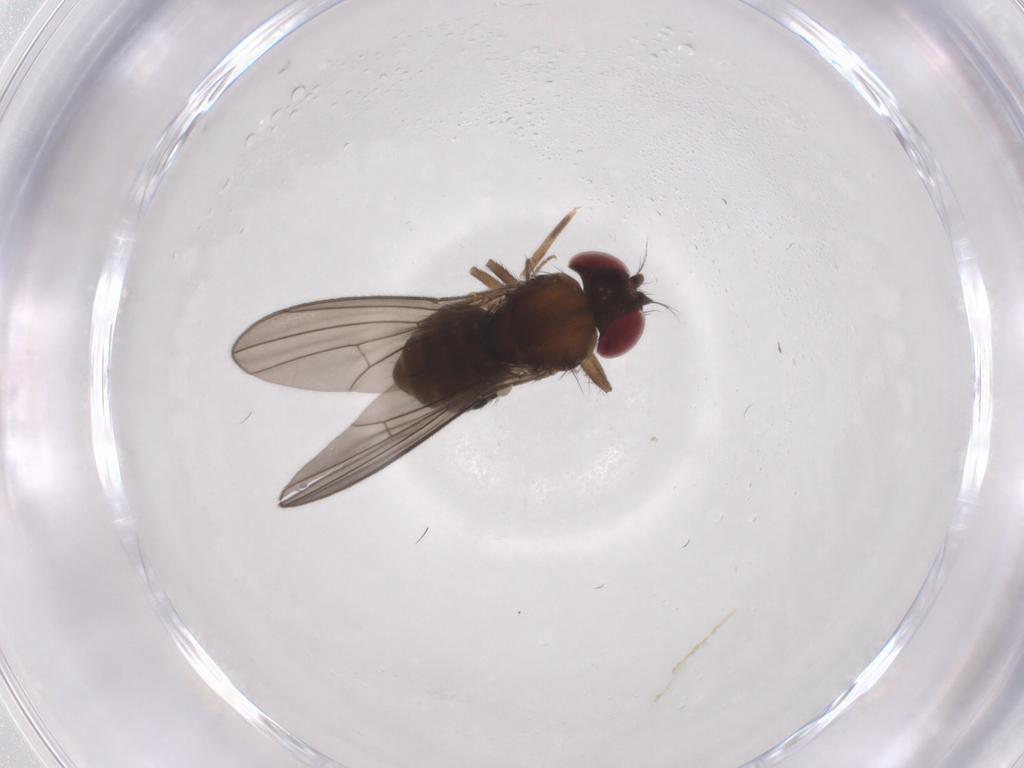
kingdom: Animalia
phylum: Arthropoda
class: Insecta
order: Diptera
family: Drosophilidae
